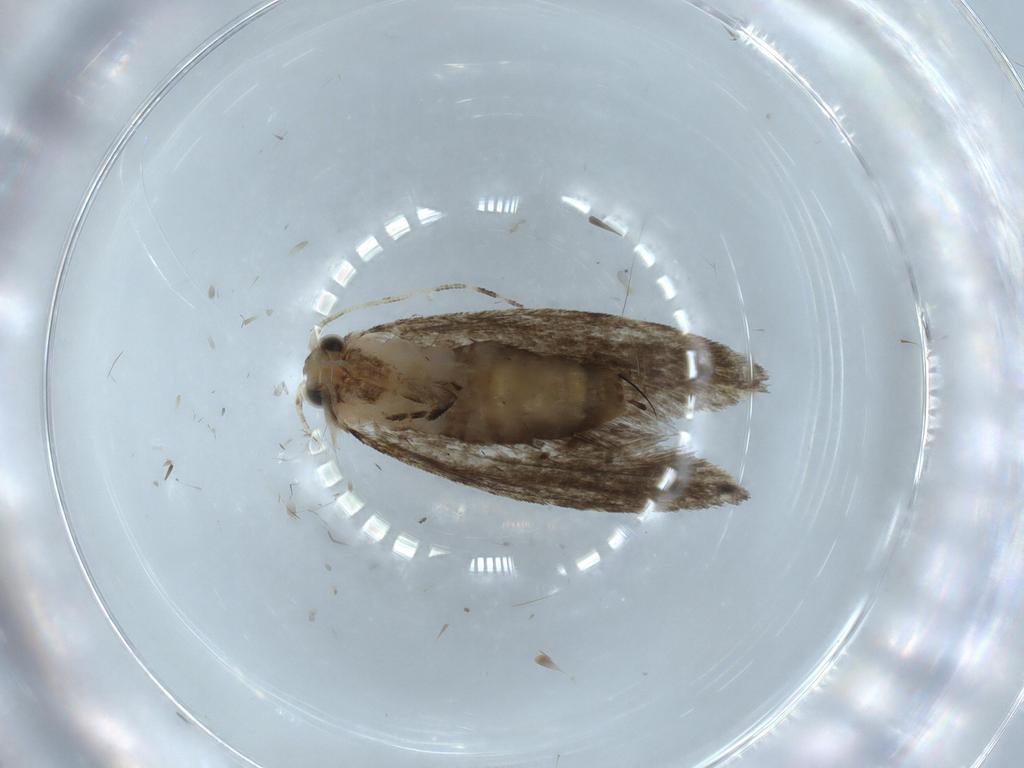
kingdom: Animalia
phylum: Arthropoda
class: Insecta
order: Lepidoptera
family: Tineidae
